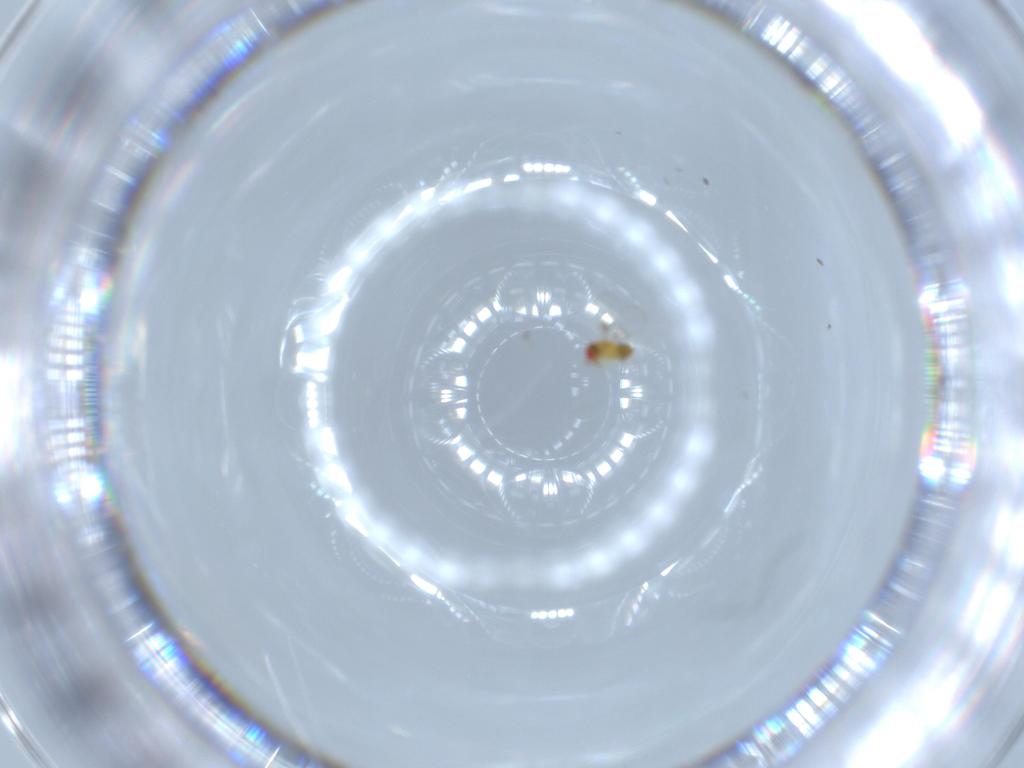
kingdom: Animalia
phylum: Arthropoda
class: Insecta
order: Hymenoptera
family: Trichogrammatidae
